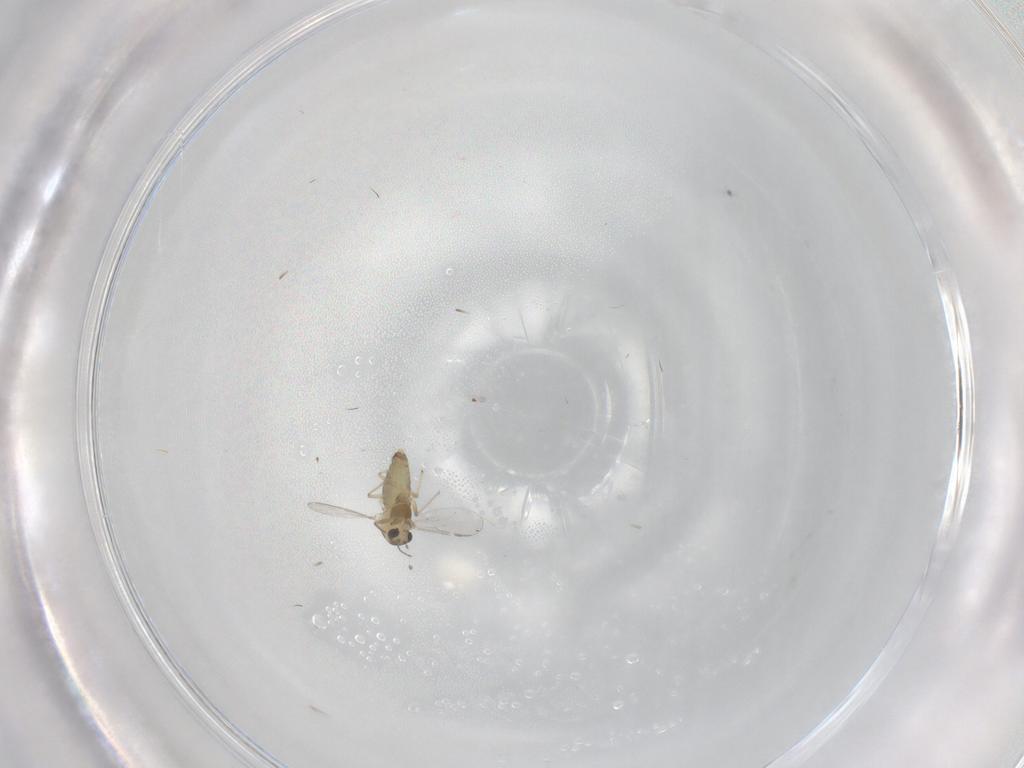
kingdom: Animalia
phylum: Arthropoda
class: Insecta
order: Diptera
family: Chironomidae
